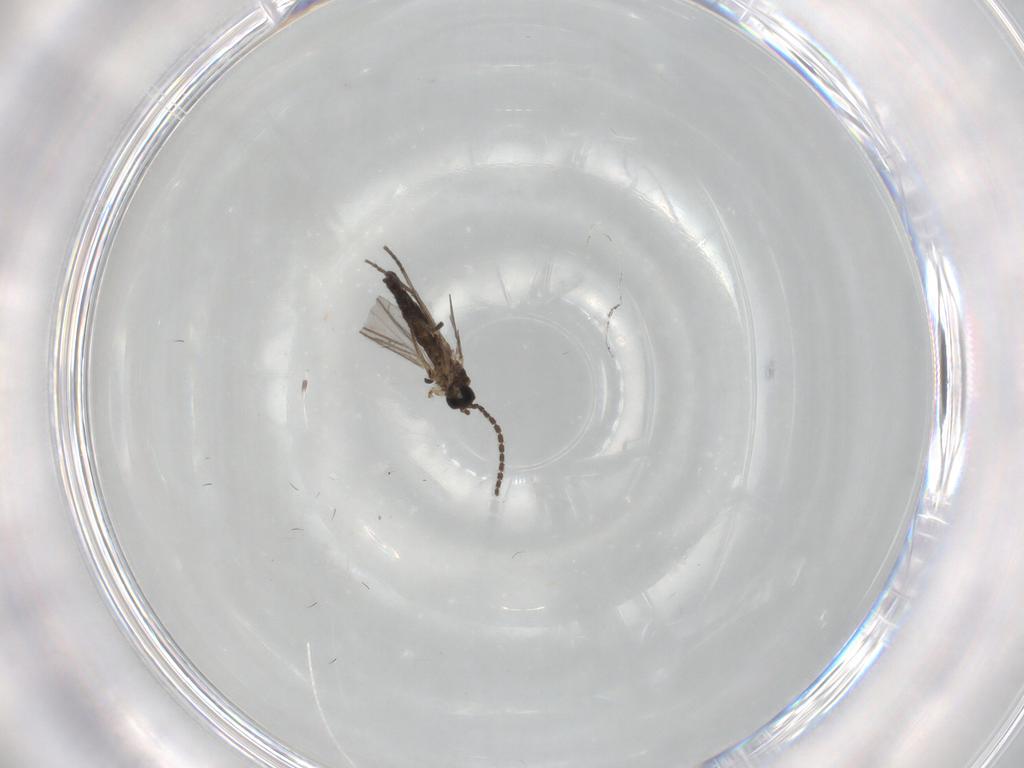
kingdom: Animalia
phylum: Arthropoda
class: Insecta
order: Diptera
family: Sciaridae
